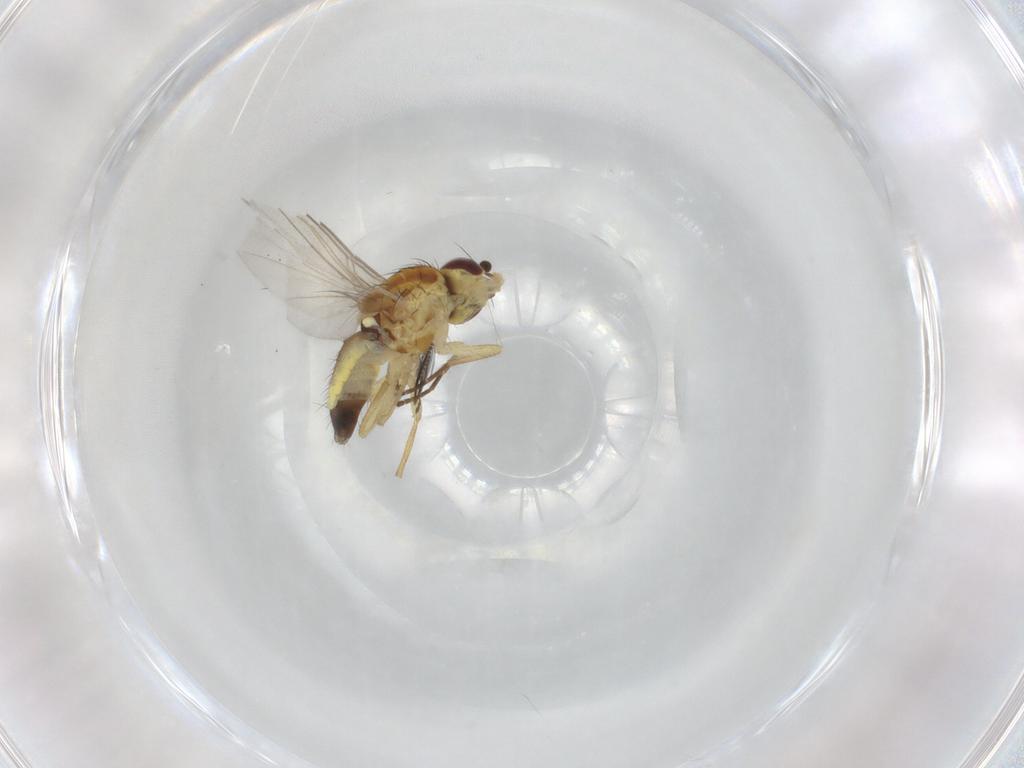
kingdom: Animalia
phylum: Arthropoda
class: Insecta
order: Diptera
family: Agromyzidae
